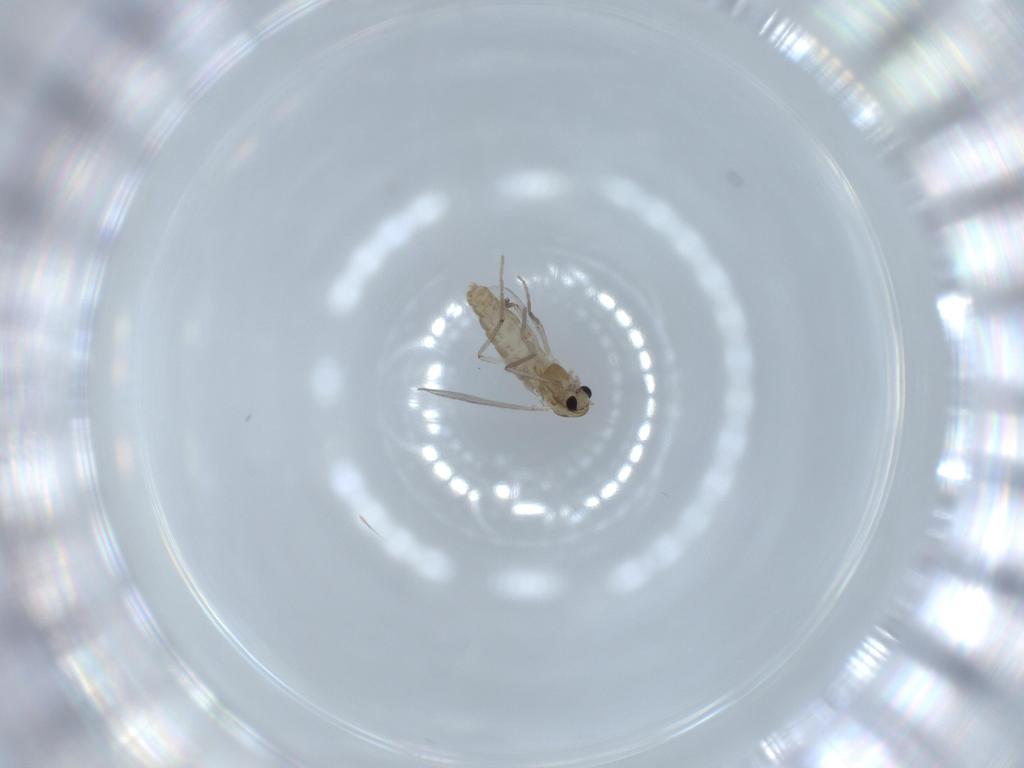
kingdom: Animalia
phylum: Arthropoda
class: Insecta
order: Diptera
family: Chironomidae
